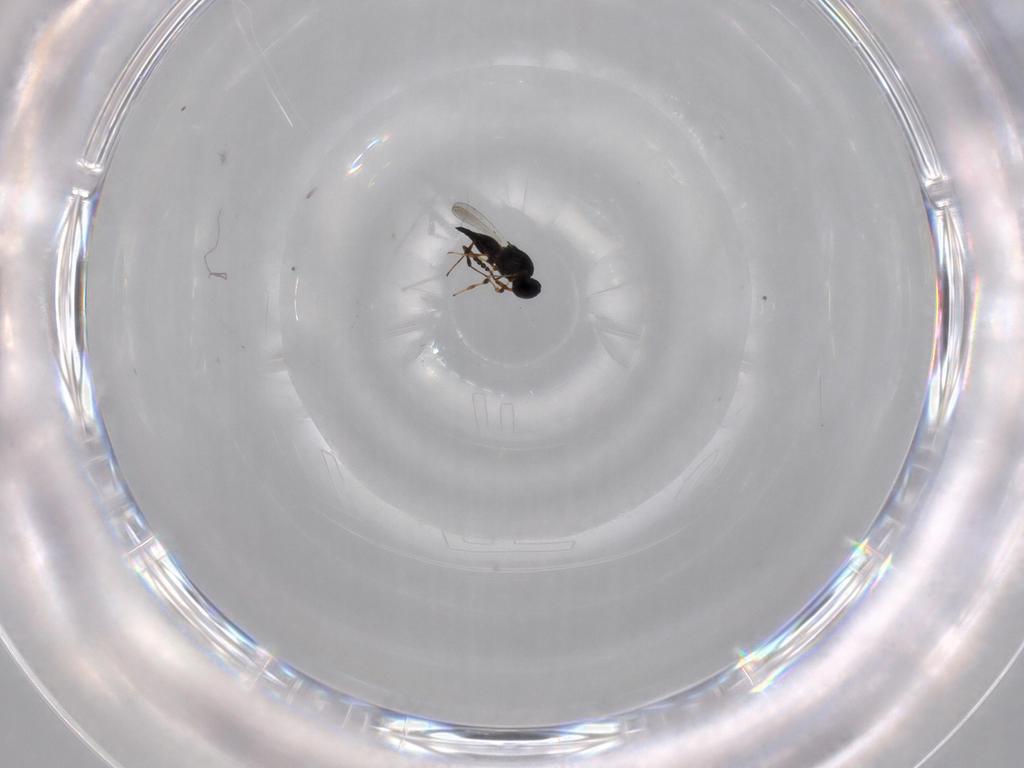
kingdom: Animalia
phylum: Arthropoda
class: Insecta
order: Hymenoptera
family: Platygastridae
